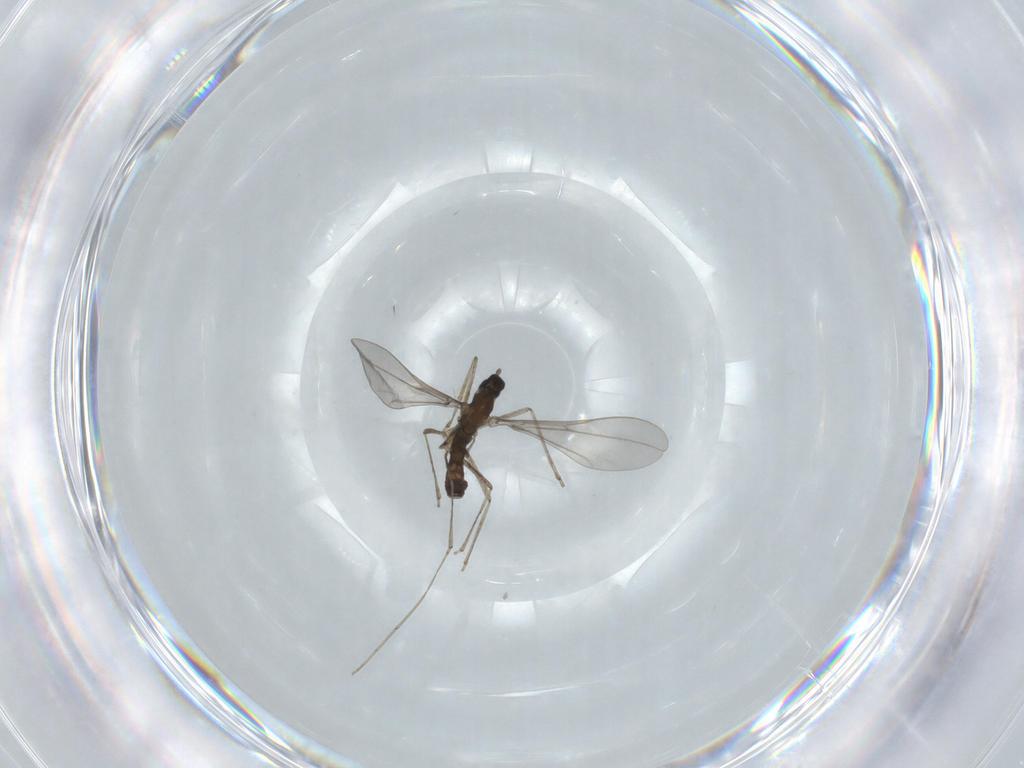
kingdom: Animalia
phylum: Arthropoda
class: Insecta
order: Diptera
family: Cecidomyiidae
